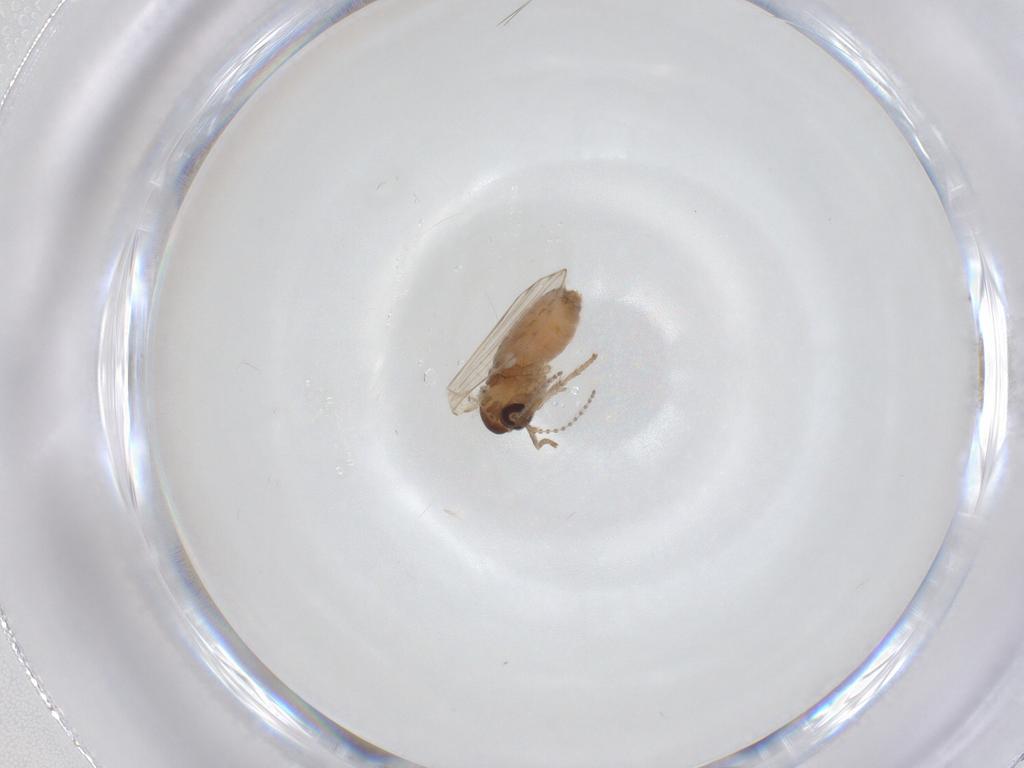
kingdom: Animalia
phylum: Arthropoda
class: Insecta
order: Diptera
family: Psychodidae
